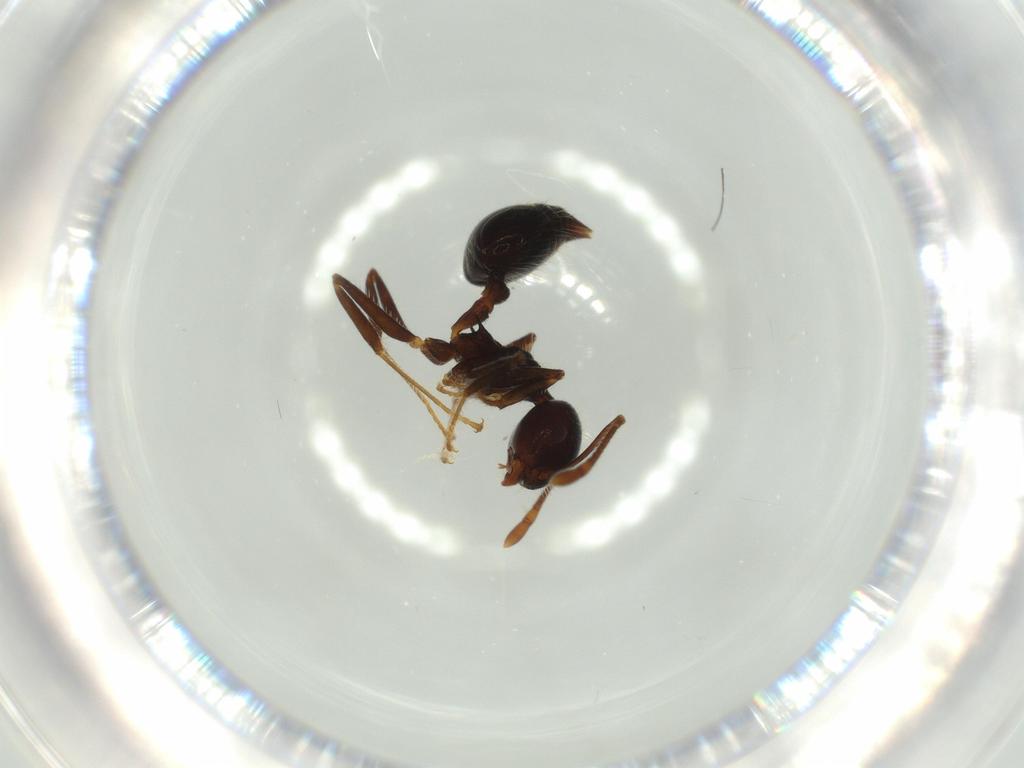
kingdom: Animalia
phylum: Arthropoda
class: Insecta
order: Hymenoptera
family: Formicidae
